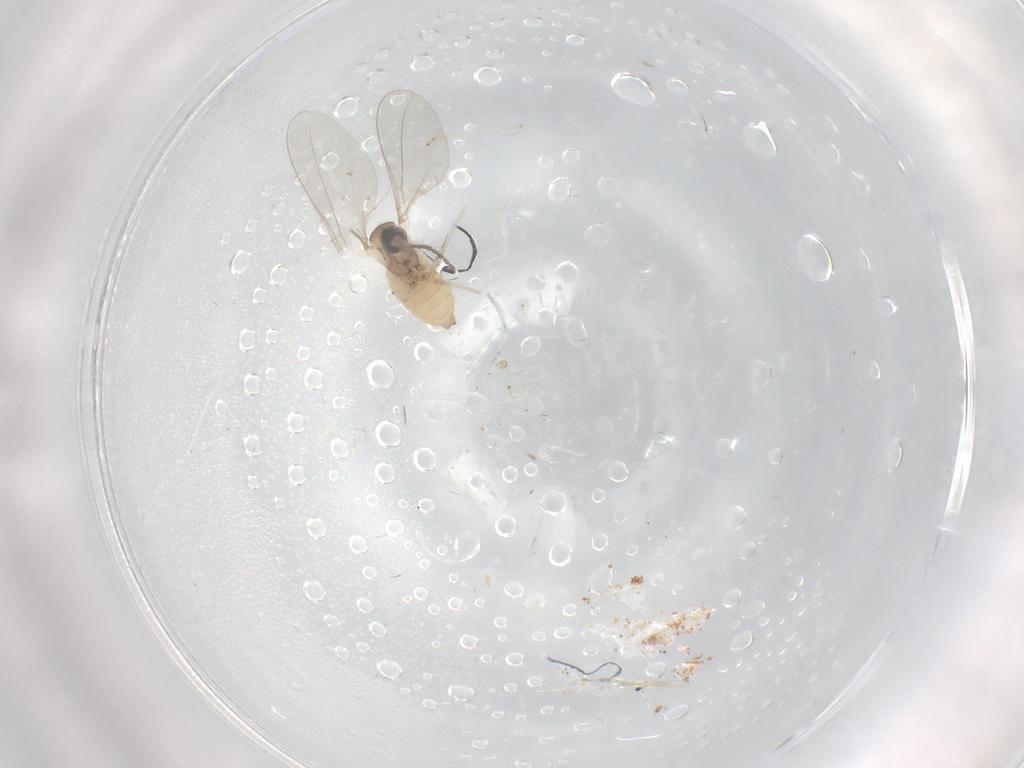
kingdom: Animalia
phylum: Arthropoda
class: Insecta
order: Diptera
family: Cecidomyiidae
